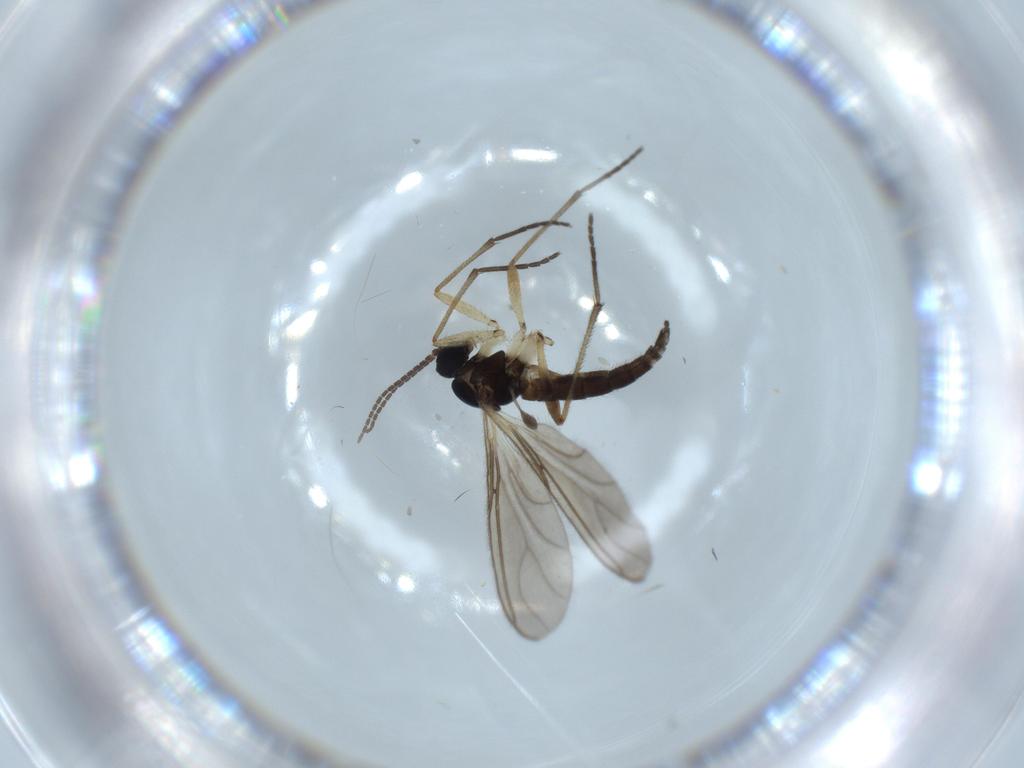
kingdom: Animalia
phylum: Arthropoda
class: Insecta
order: Diptera
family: Sciaridae
